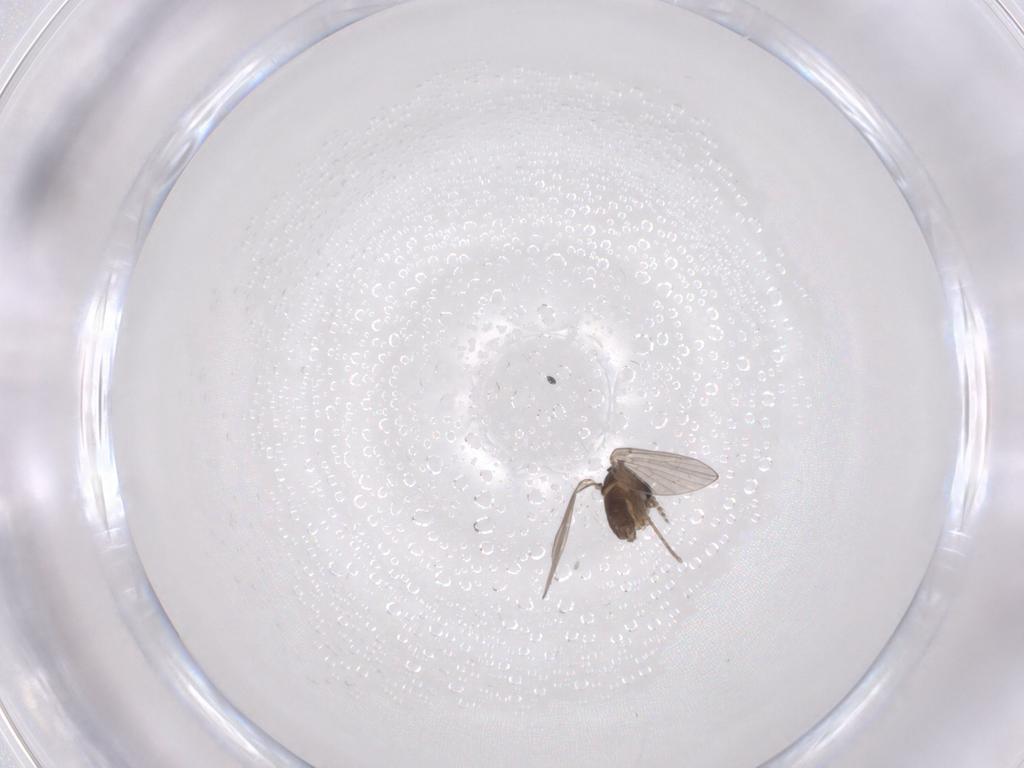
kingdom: Animalia
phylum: Arthropoda
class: Insecta
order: Diptera
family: Psychodidae
